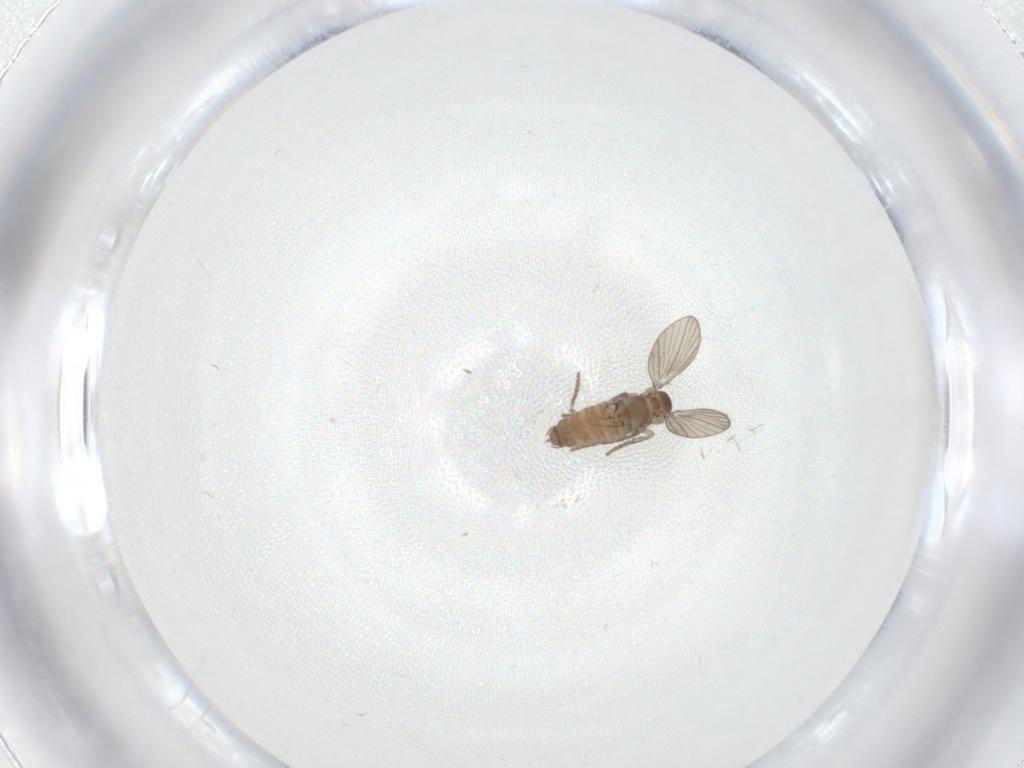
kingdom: Animalia
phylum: Arthropoda
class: Insecta
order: Diptera
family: Psychodidae
